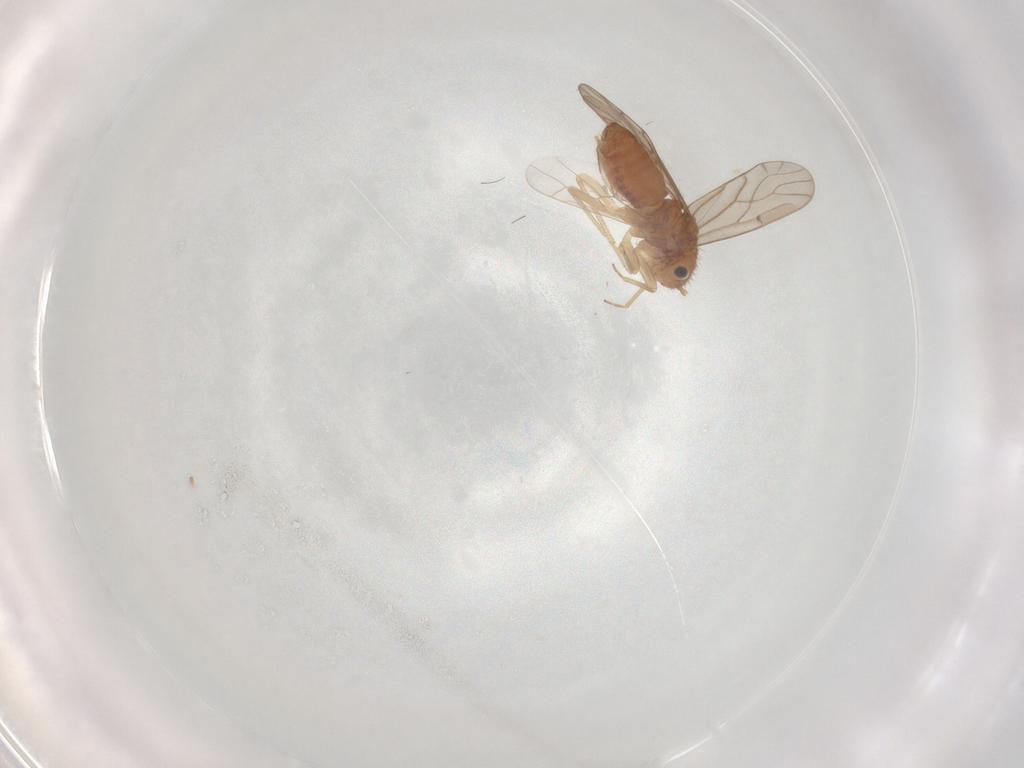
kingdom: Animalia
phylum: Arthropoda
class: Insecta
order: Psocodea
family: Ectopsocidae
